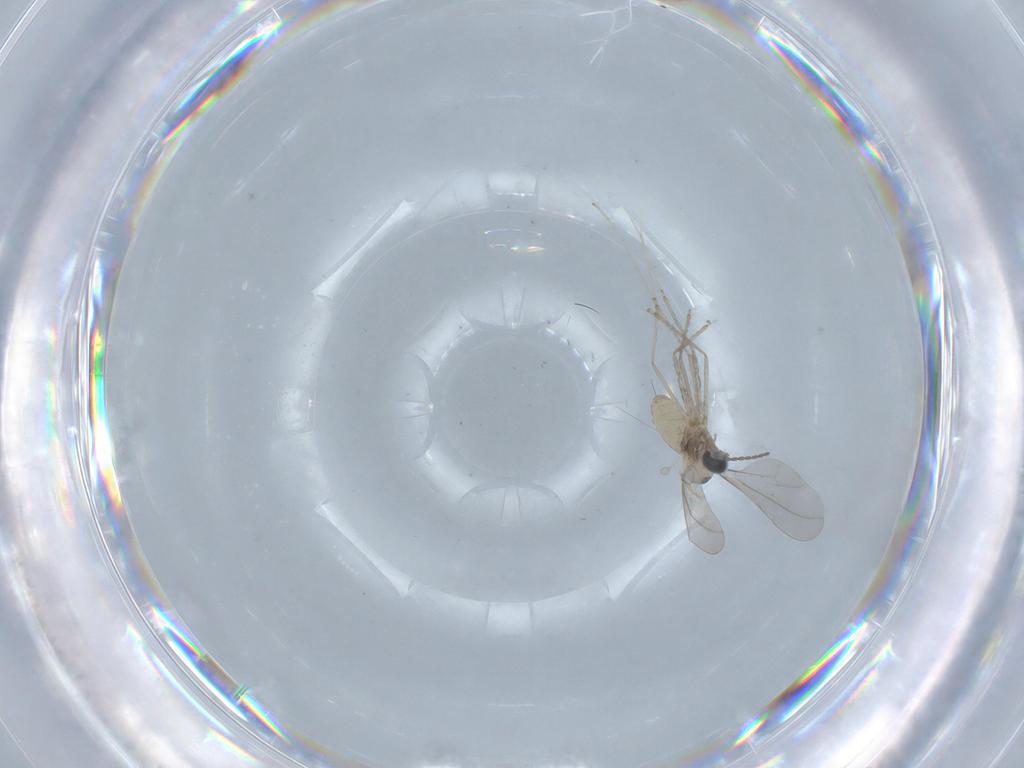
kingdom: Animalia
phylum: Arthropoda
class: Insecta
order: Diptera
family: Cecidomyiidae
